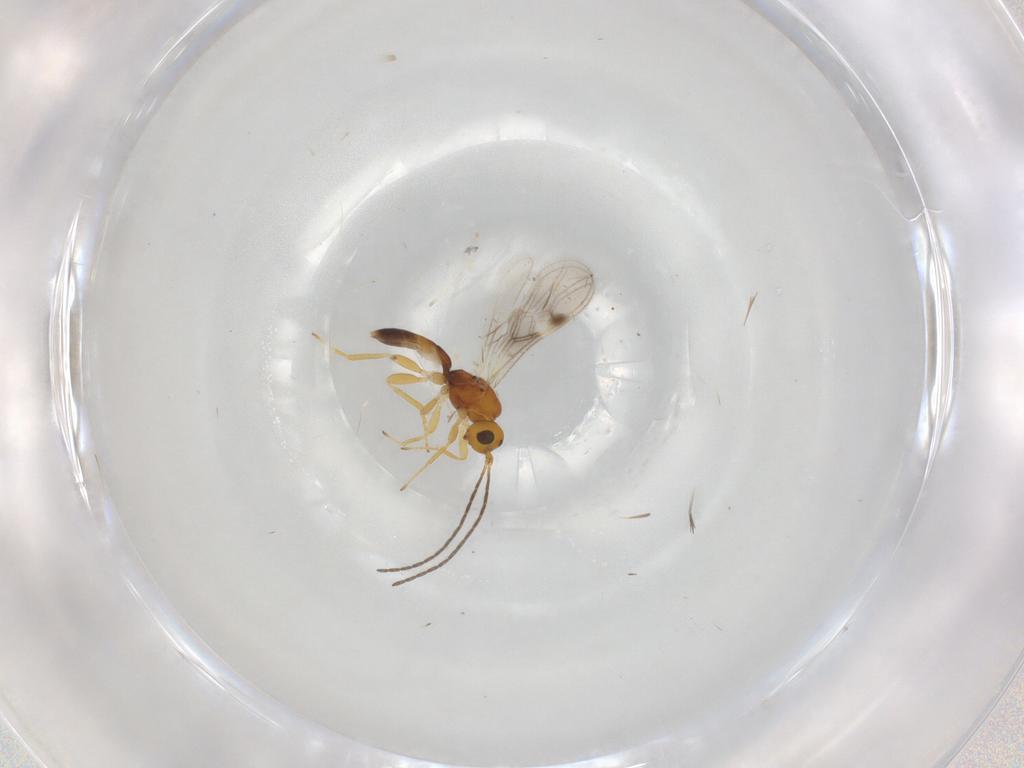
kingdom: Animalia
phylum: Arthropoda
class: Insecta
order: Hymenoptera
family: Braconidae
